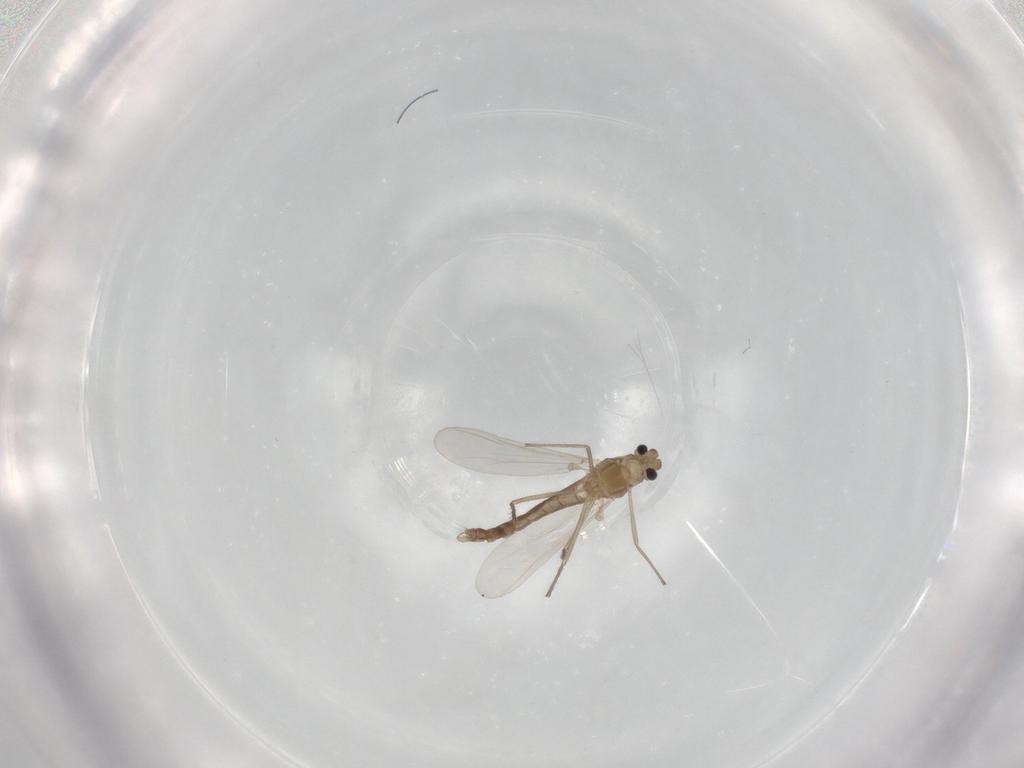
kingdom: Animalia
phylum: Arthropoda
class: Insecta
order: Diptera
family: Chironomidae
